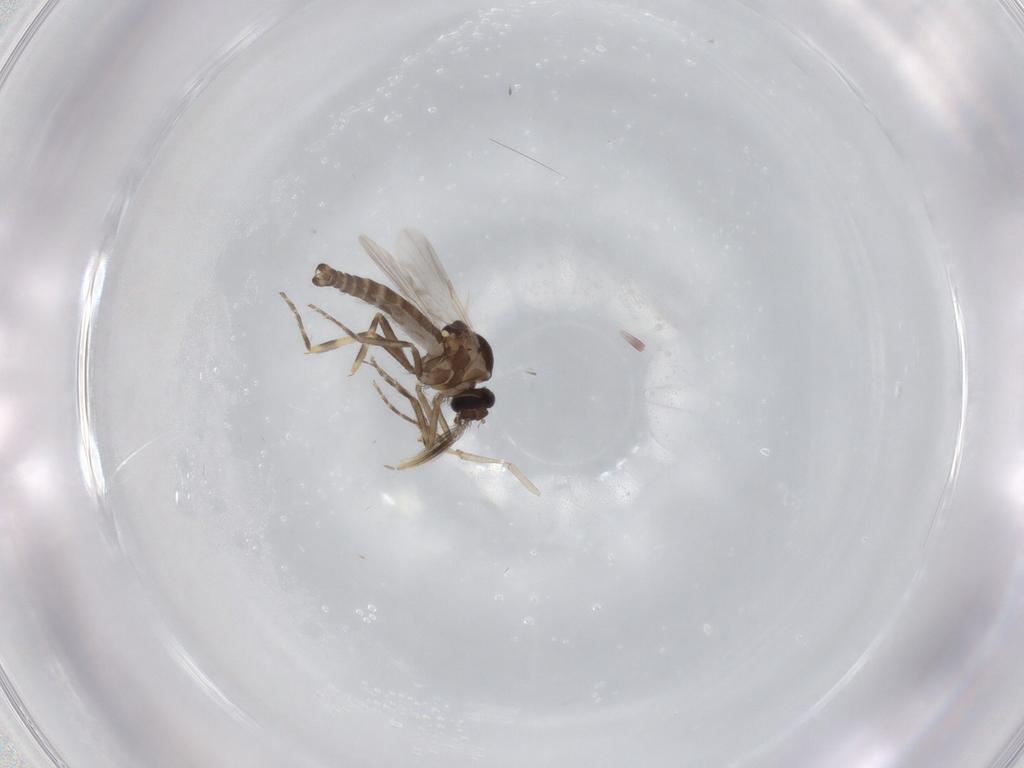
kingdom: Animalia
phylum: Arthropoda
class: Insecta
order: Diptera
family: Ceratopogonidae
